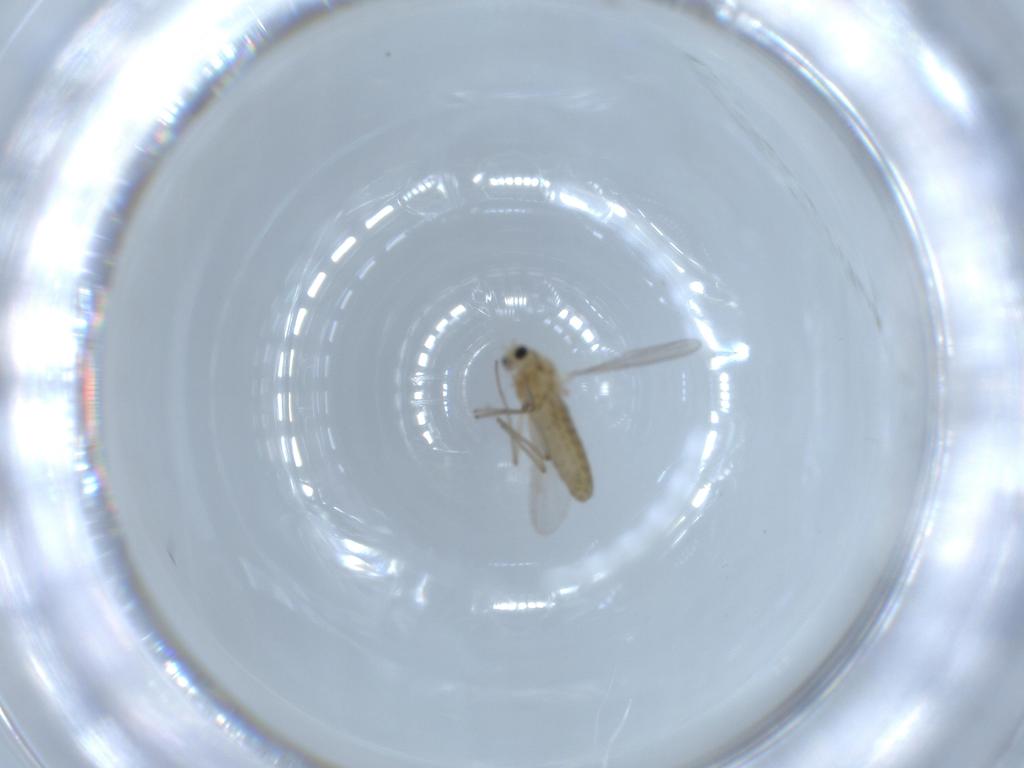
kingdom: Animalia
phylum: Arthropoda
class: Insecta
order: Diptera
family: Chironomidae
